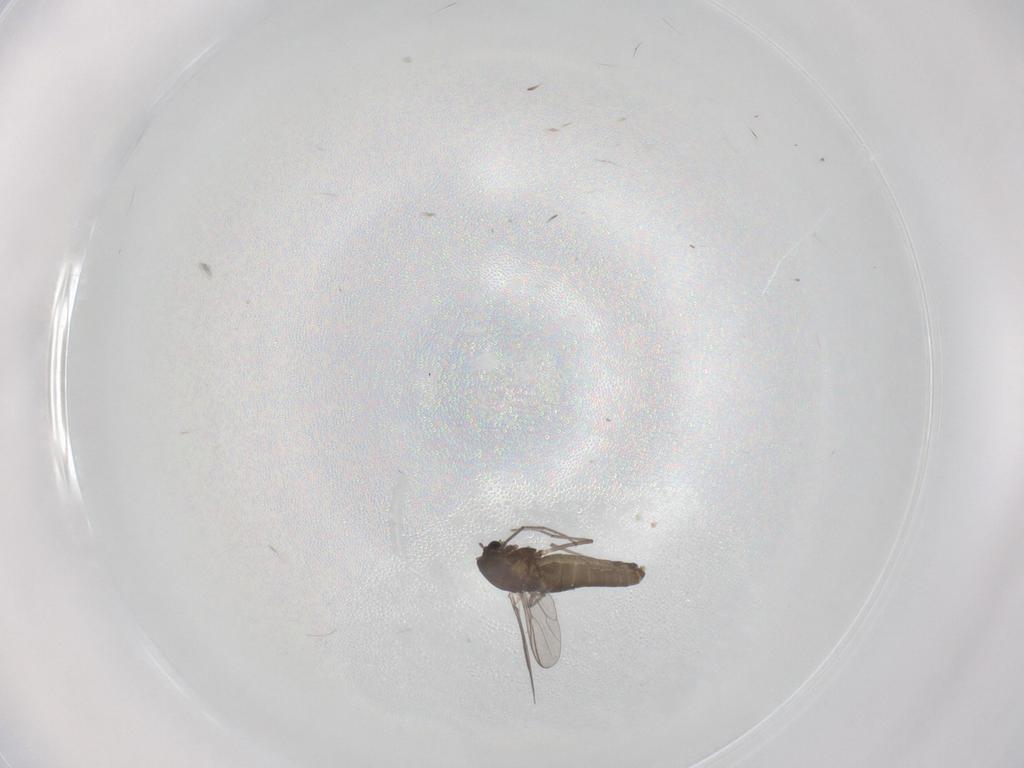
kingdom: Animalia
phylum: Arthropoda
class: Insecta
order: Diptera
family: Chironomidae
